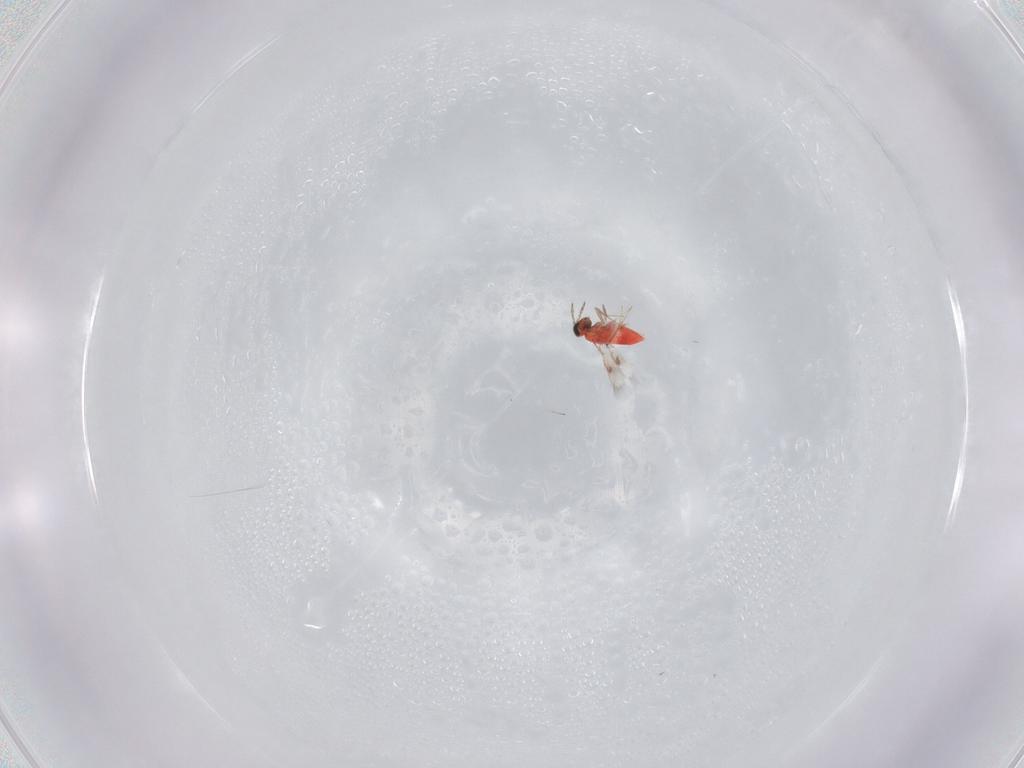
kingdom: Animalia
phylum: Arthropoda
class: Insecta
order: Hymenoptera
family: Trichogrammatidae
